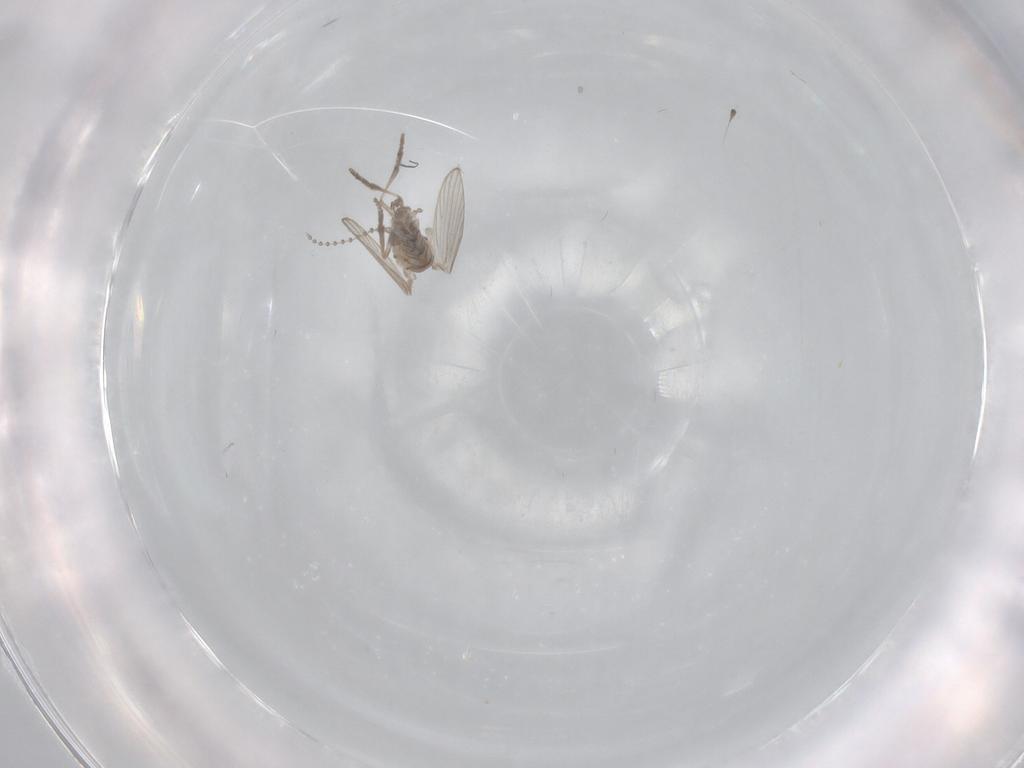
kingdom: Animalia
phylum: Arthropoda
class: Insecta
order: Diptera
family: Psychodidae
